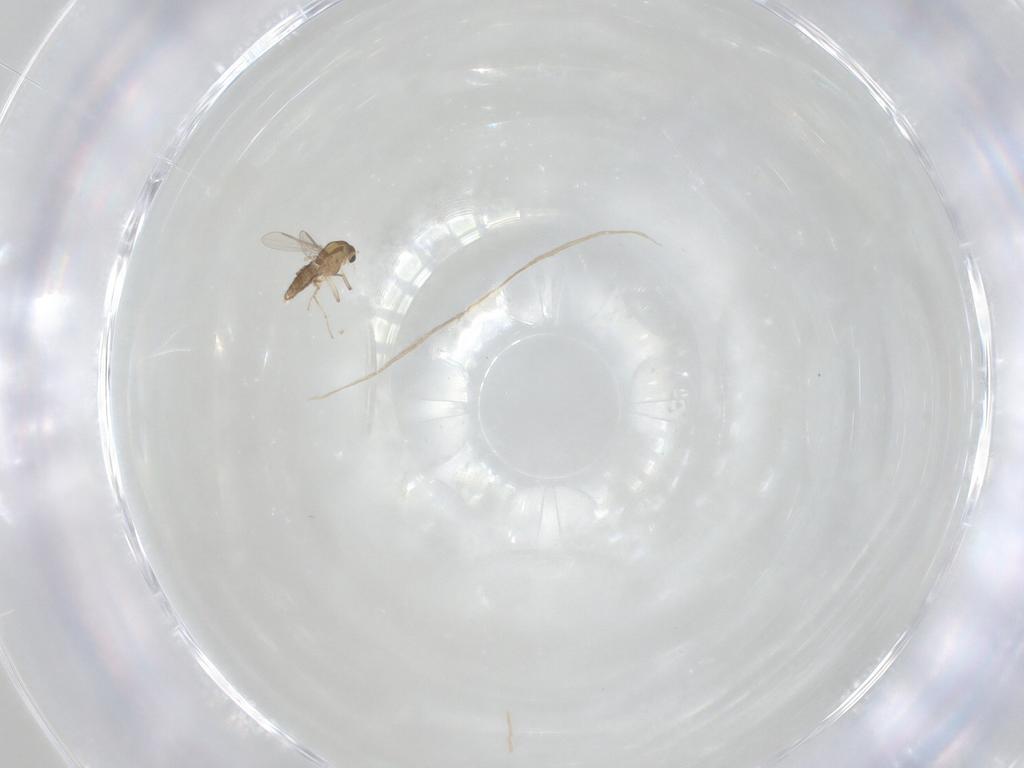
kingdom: Animalia
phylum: Arthropoda
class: Insecta
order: Diptera
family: Chironomidae
